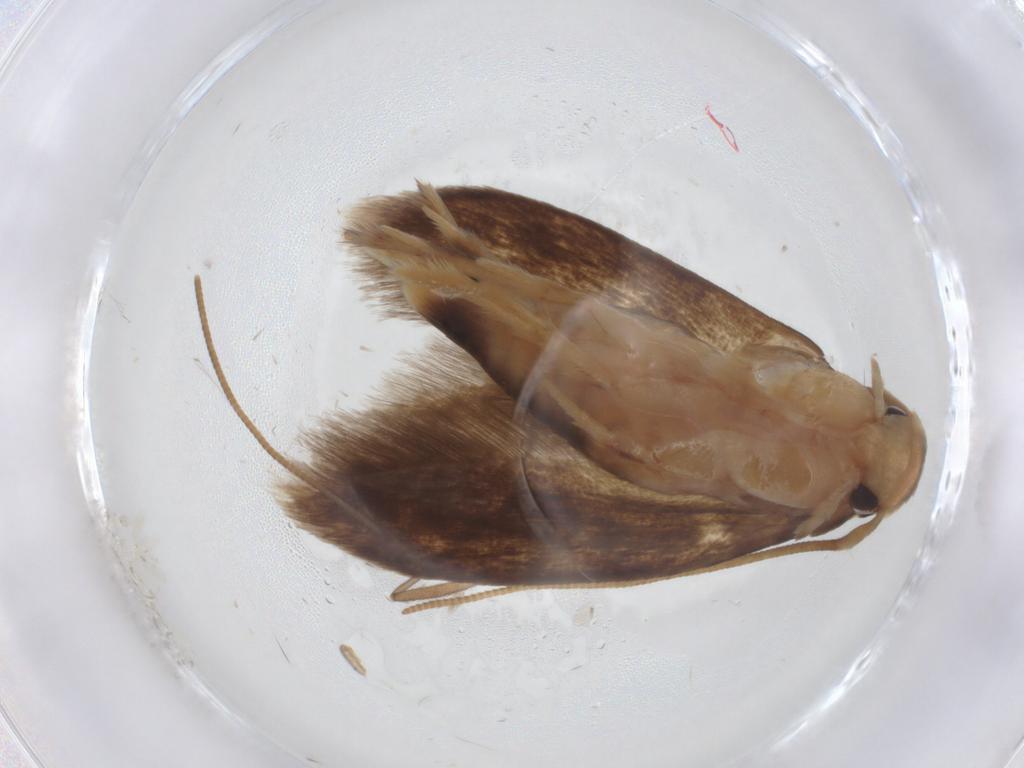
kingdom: Animalia
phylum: Arthropoda
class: Insecta
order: Lepidoptera
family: Tineidae
